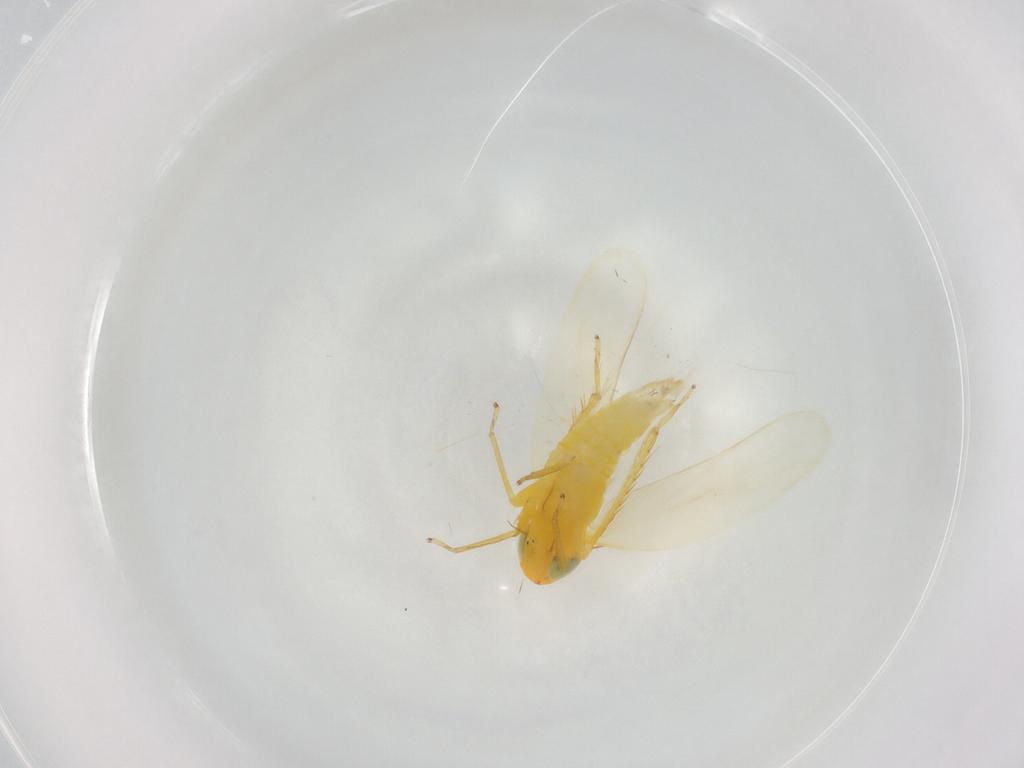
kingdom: Animalia
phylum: Arthropoda
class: Insecta
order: Hemiptera
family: Cicadellidae
